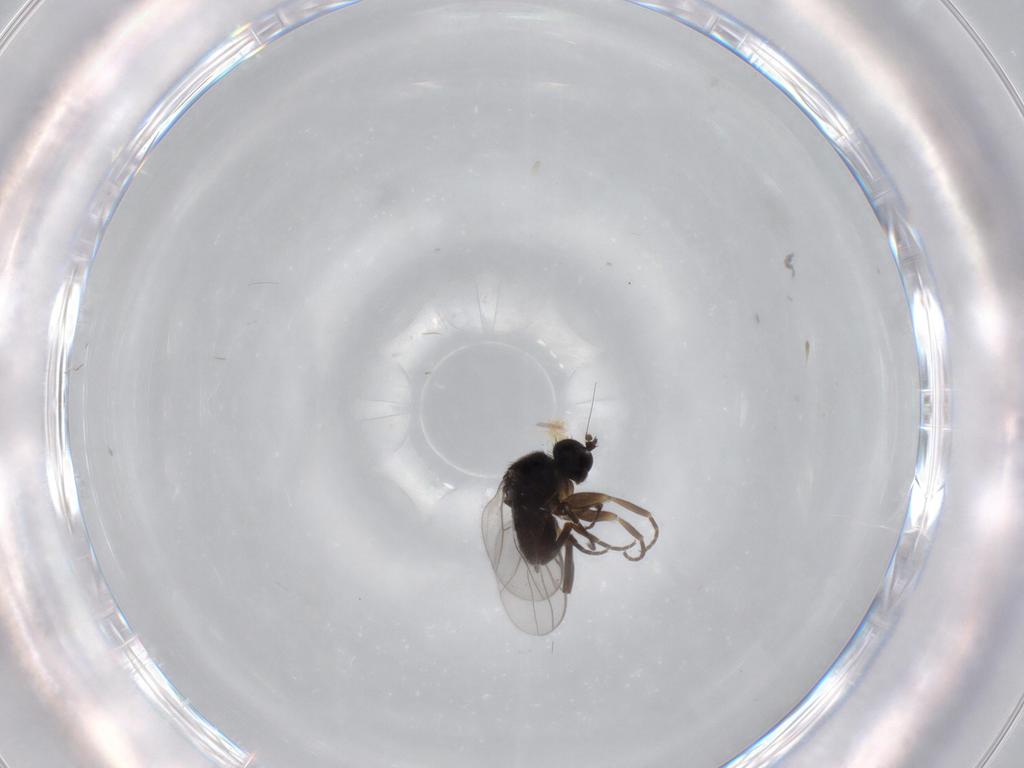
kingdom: Animalia
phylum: Arthropoda
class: Insecta
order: Diptera
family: Hybotidae
